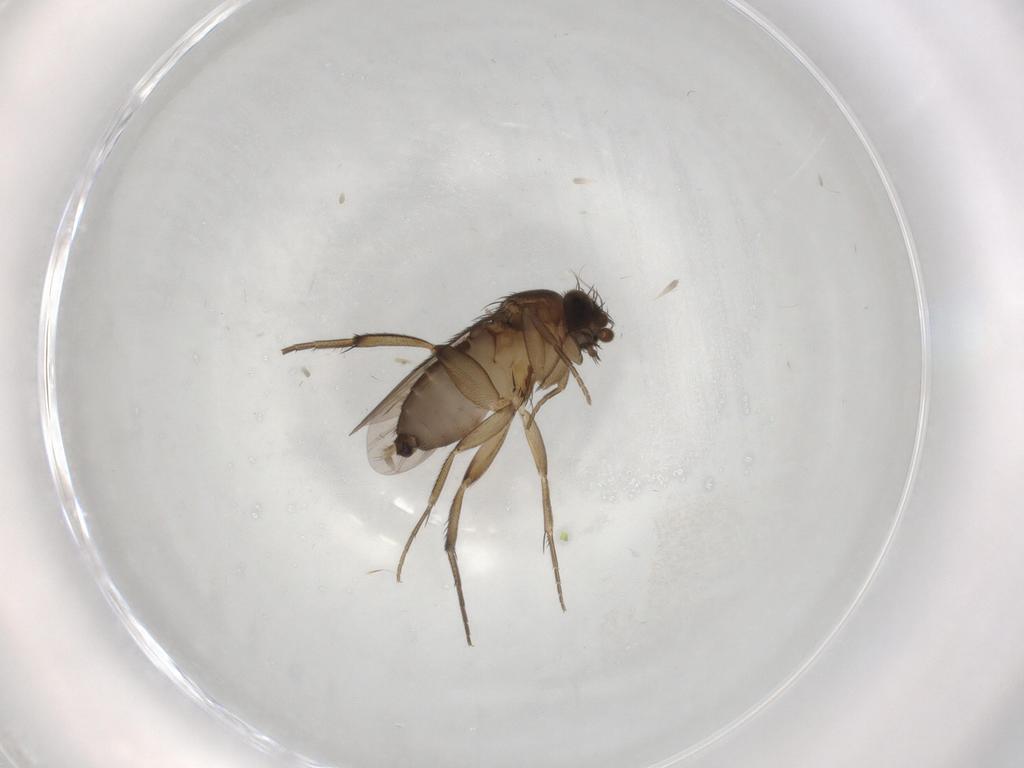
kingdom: Animalia
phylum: Arthropoda
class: Insecta
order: Diptera
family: Phoridae
